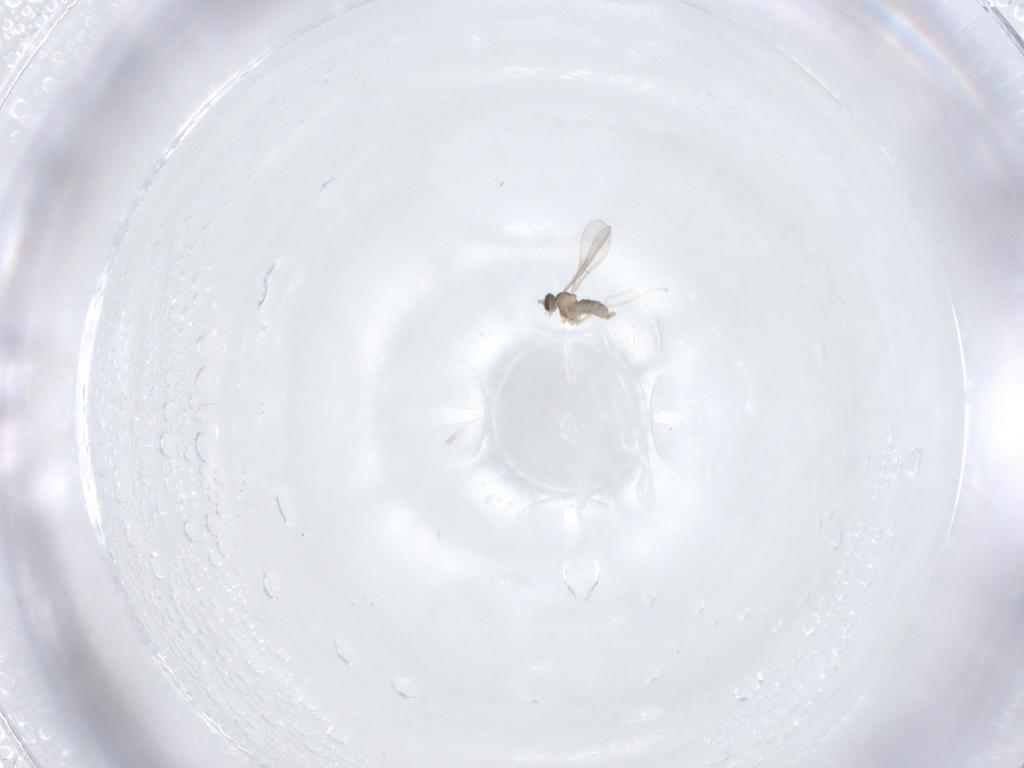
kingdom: Animalia
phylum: Arthropoda
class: Insecta
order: Diptera
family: Cecidomyiidae
